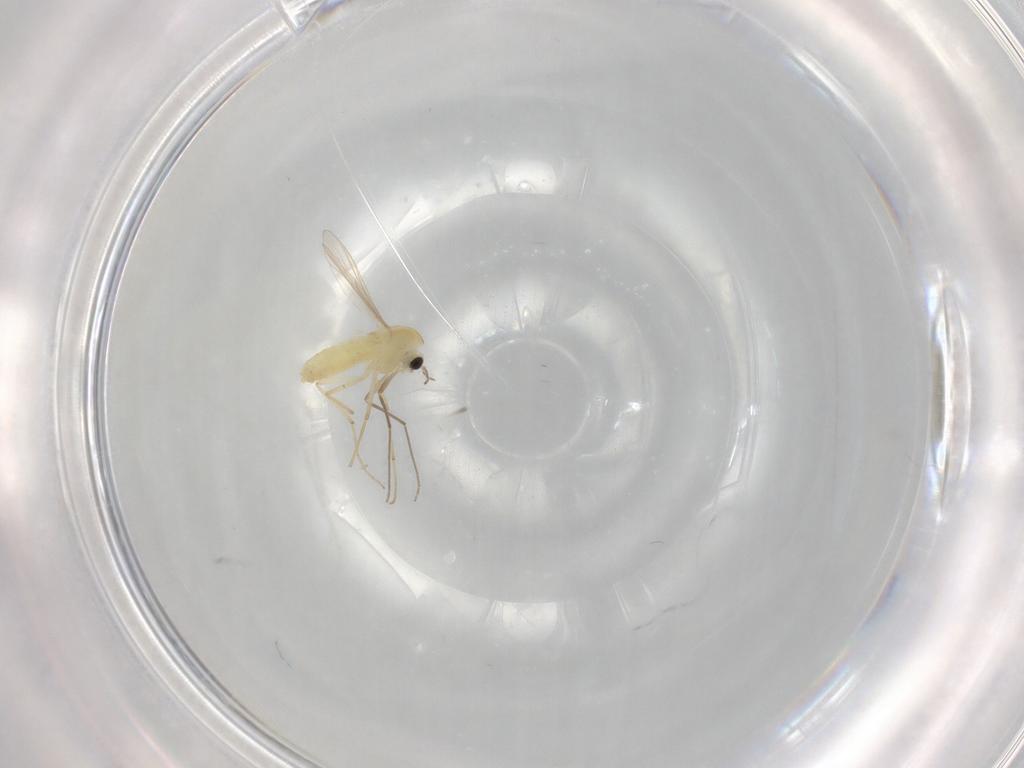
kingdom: Animalia
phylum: Arthropoda
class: Insecta
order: Diptera
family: Chironomidae
